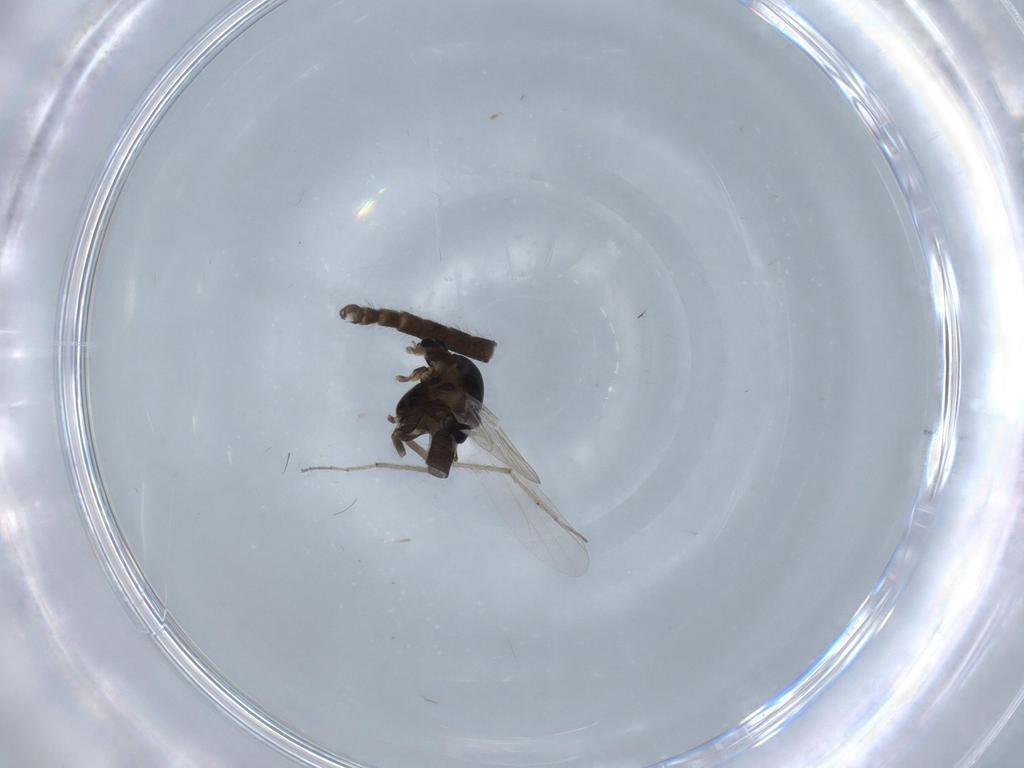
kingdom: Animalia
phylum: Arthropoda
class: Insecta
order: Diptera
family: Chironomidae
